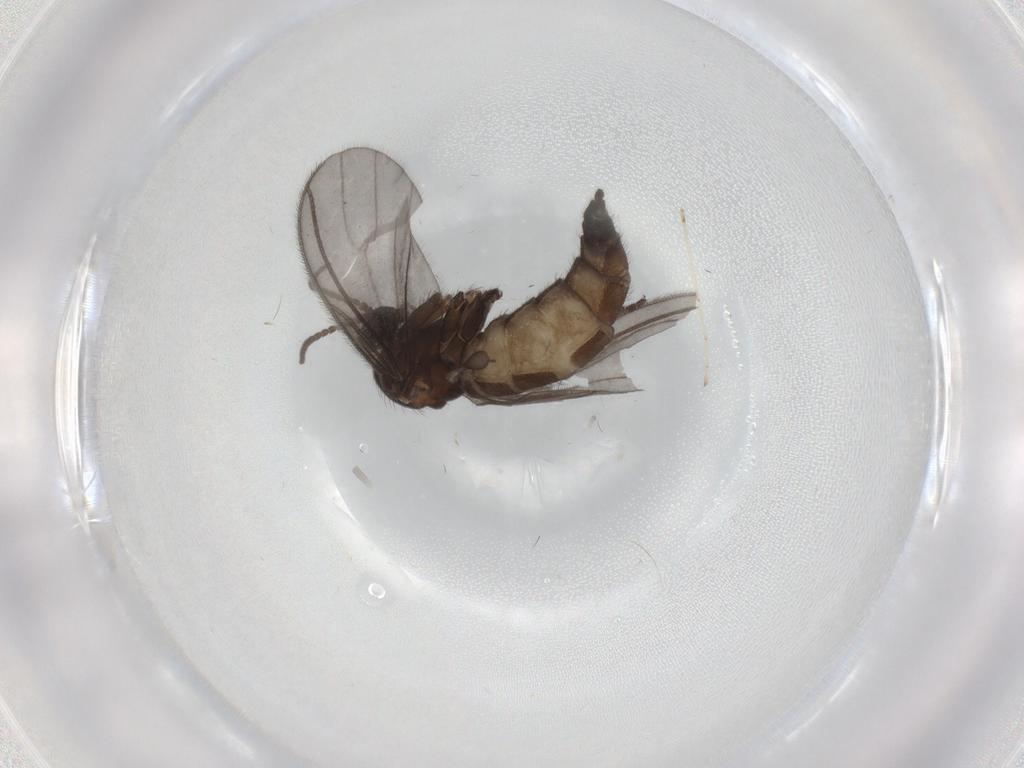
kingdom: Animalia
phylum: Arthropoda
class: Insecta
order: Diptera
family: Sciaridae
